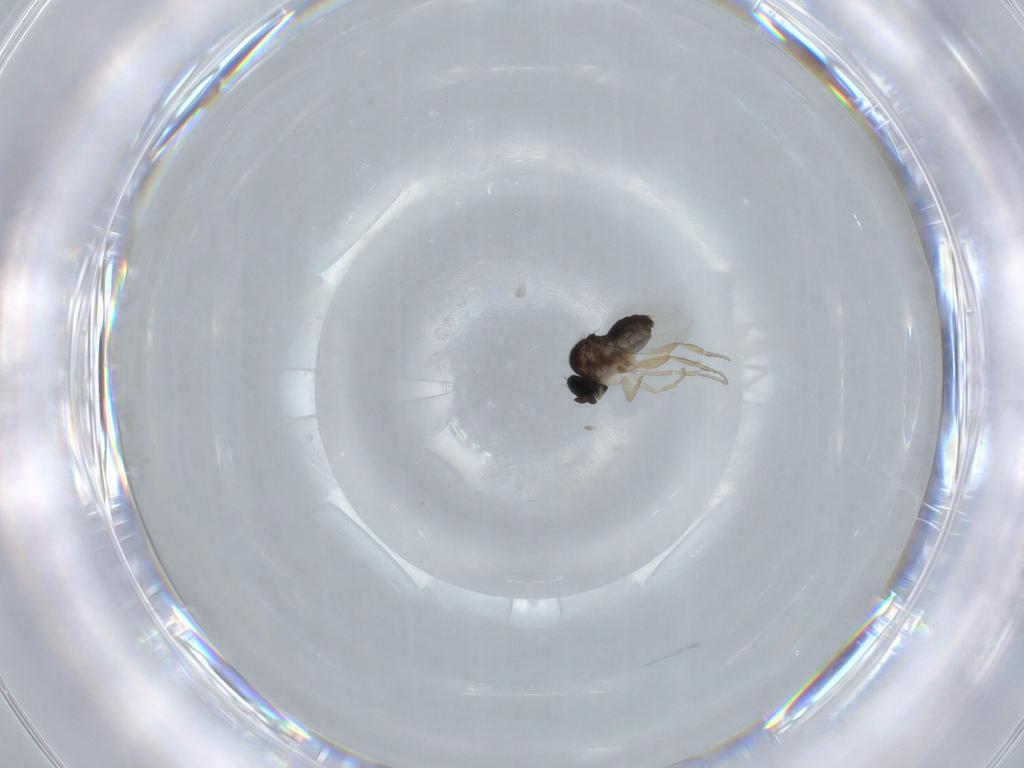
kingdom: Animalia
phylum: Arthropoda
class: Insecta
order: Diptera
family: Phoridae
